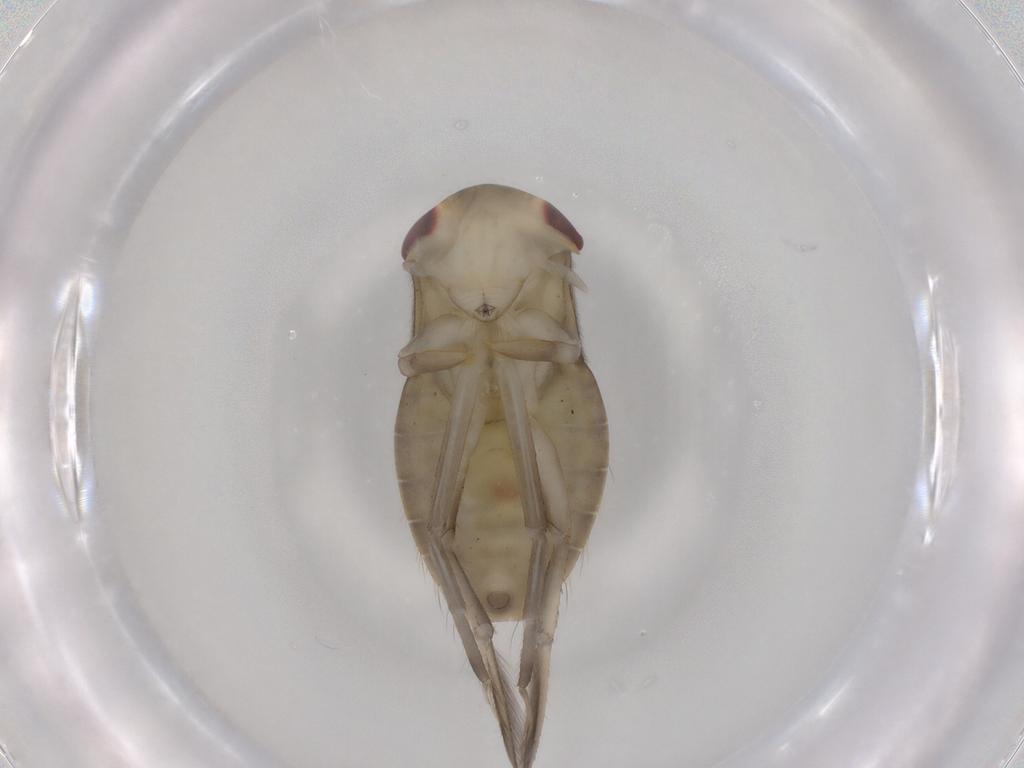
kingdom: Animalia
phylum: Arthropoda
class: Insecta
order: Hemiptera
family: Corixidae
